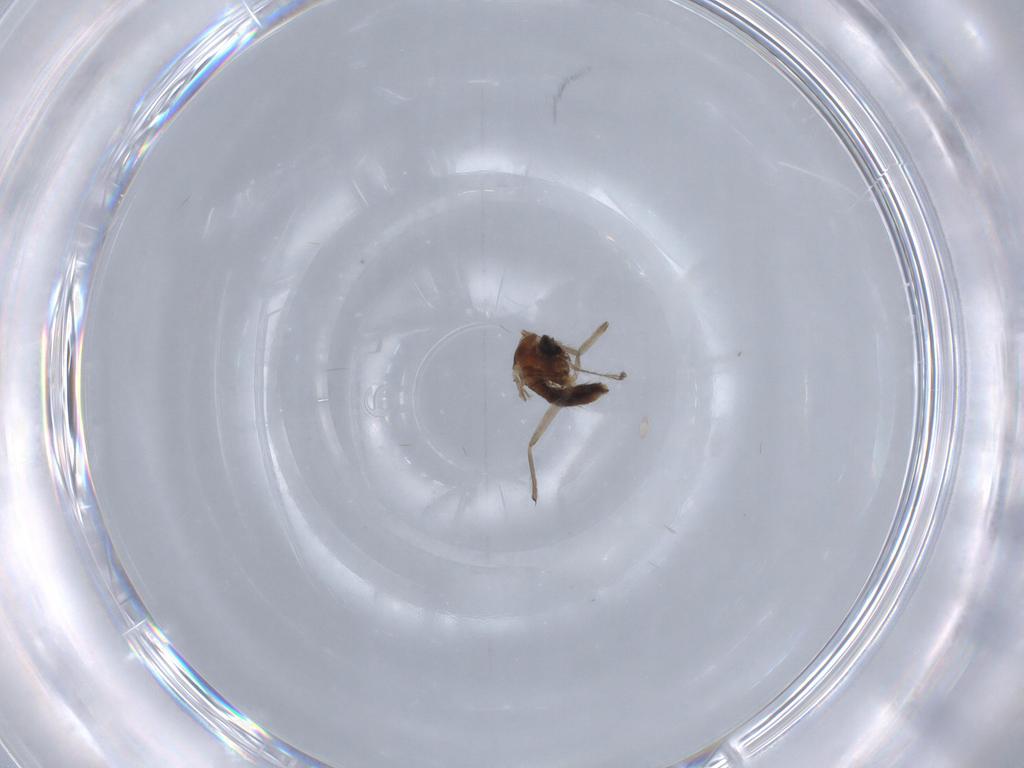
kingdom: Animalia
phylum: Arthropoda
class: Insecta
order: Diptera
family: Chironomidae
